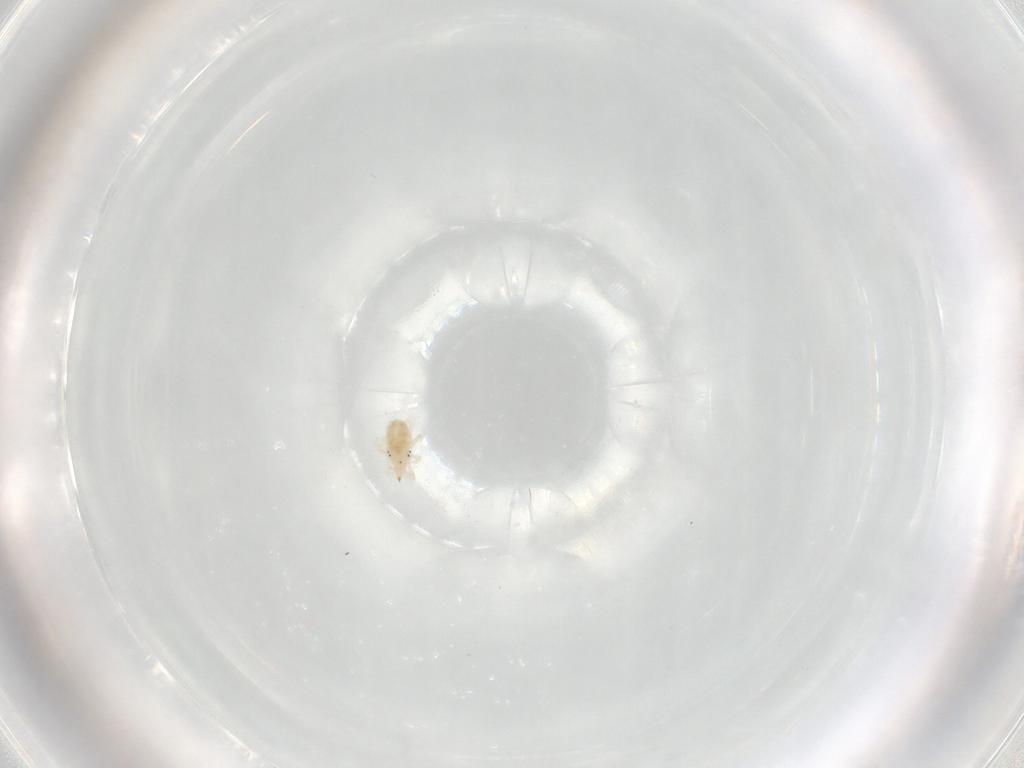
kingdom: Animalia
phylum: Arthropoda
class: Arachnida
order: Trombidiformes
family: Bdellidae
